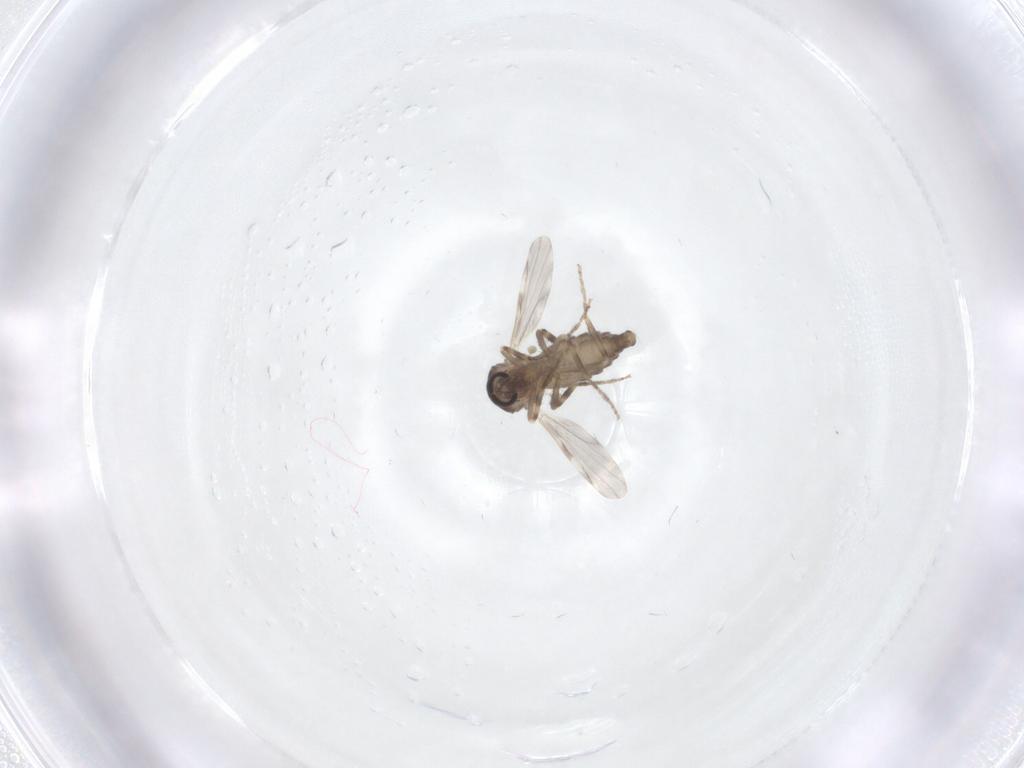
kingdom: Animalia
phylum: Arthropoda
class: Insecta
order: Diptera
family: Ceratopogonidae
